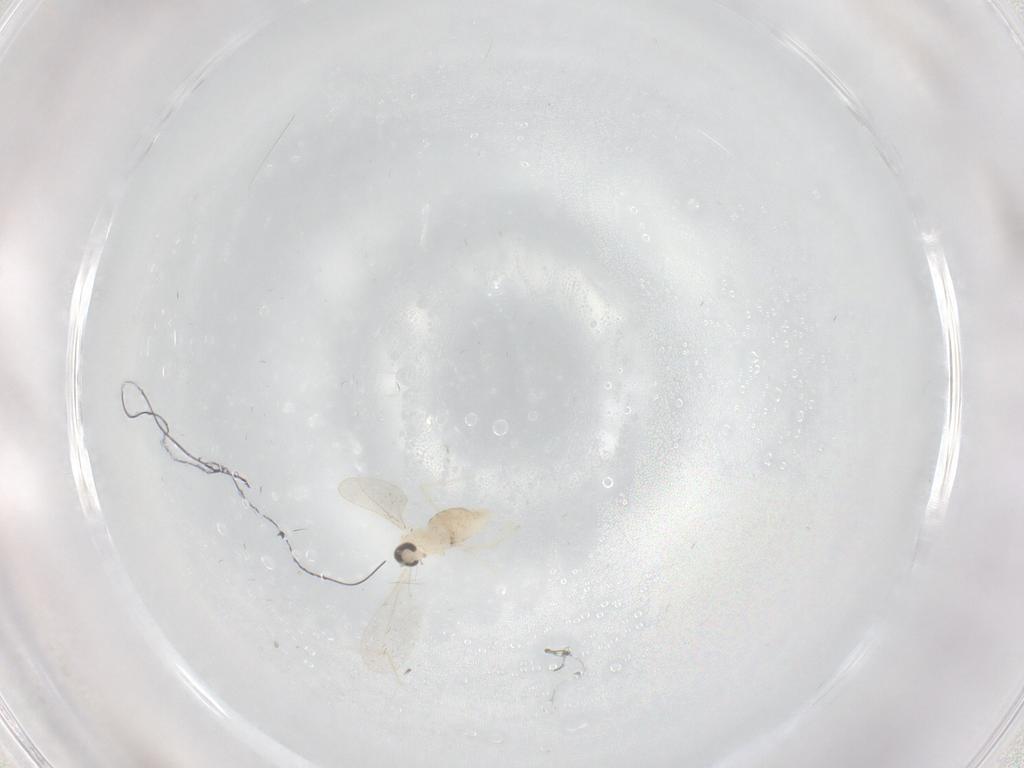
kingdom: Animalia
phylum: Arthropoda
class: Insecta
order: Diptera
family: Cecidomyiidae
